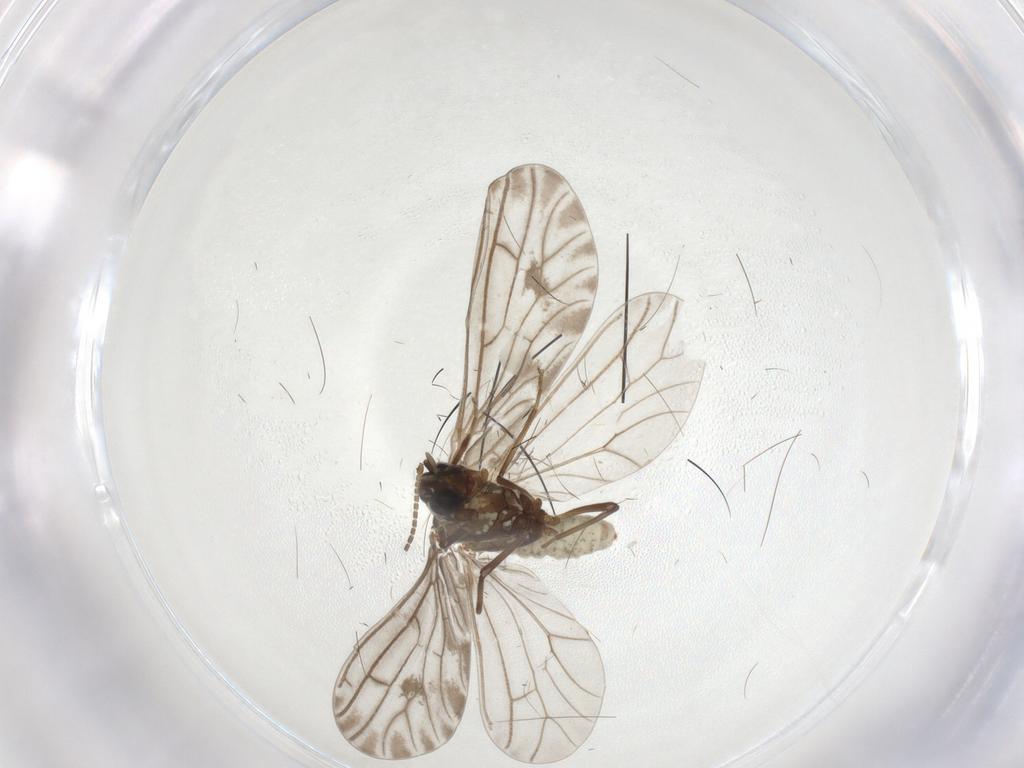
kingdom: Animalia
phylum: Arthropoda
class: Insecta
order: Neuroptera
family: Coniopterygidae
